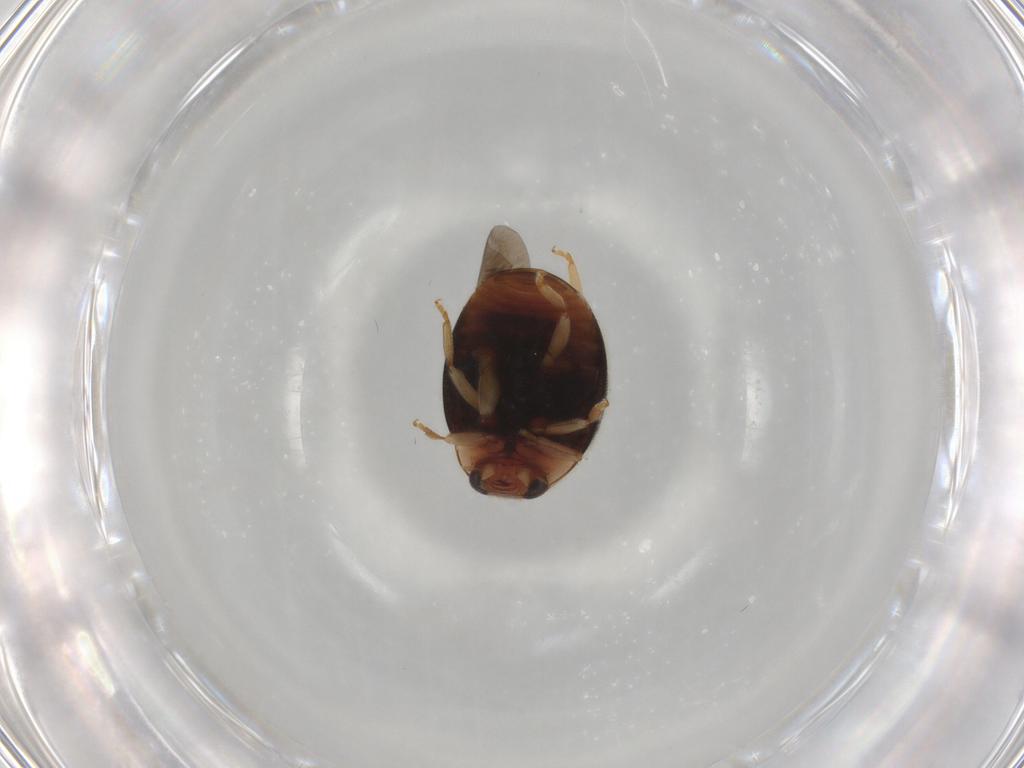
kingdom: Animalia
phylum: Arthropoda
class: Insecta
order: Coleoptera
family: Coccinellidae
